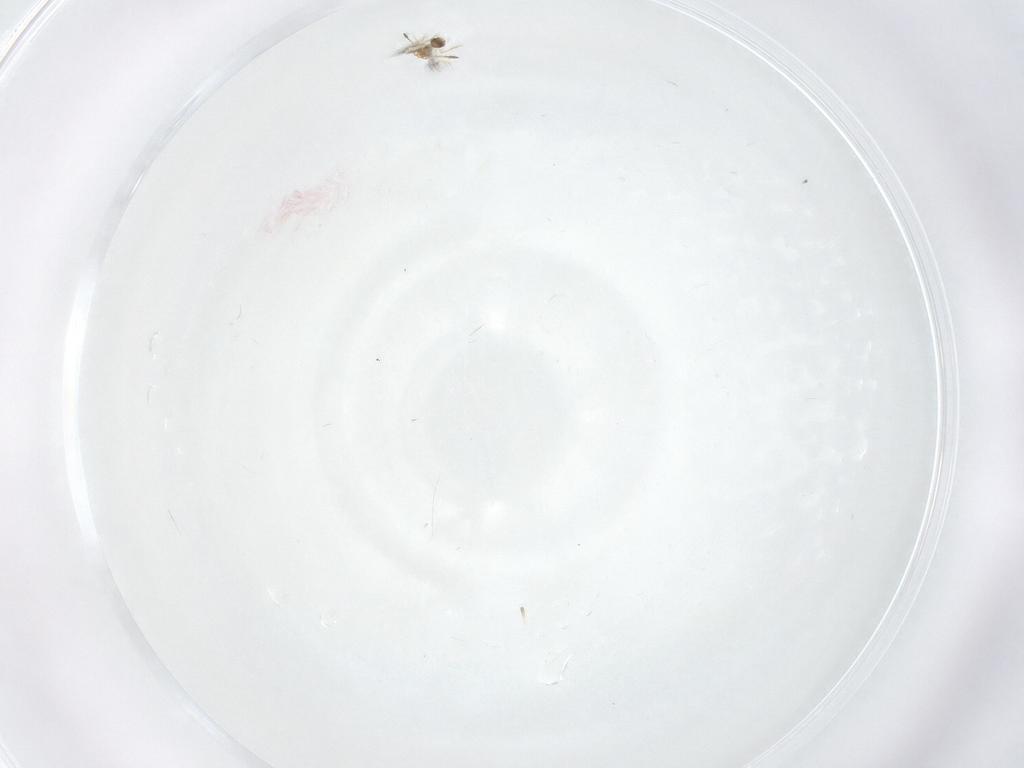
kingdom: Animalia
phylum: Arthropoda
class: Insecta
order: Hymenoptera
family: Mymarommatidae
